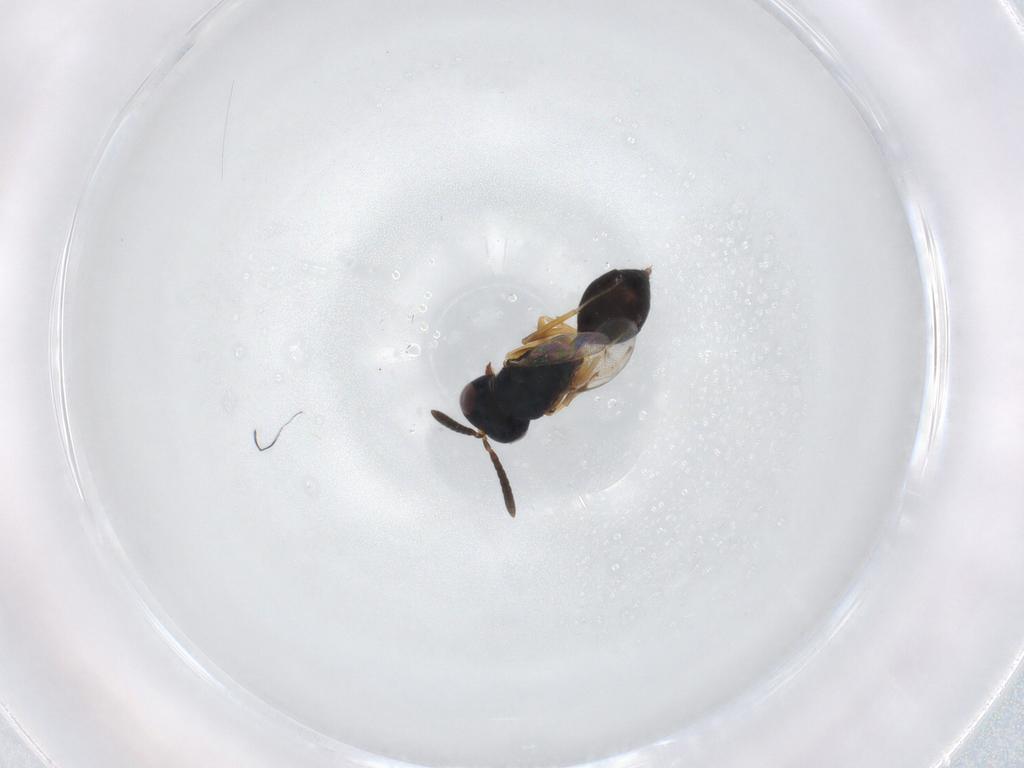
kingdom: Animalia
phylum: Arthropoda
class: Insecta
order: Hymenoptera
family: Pteromalidae
